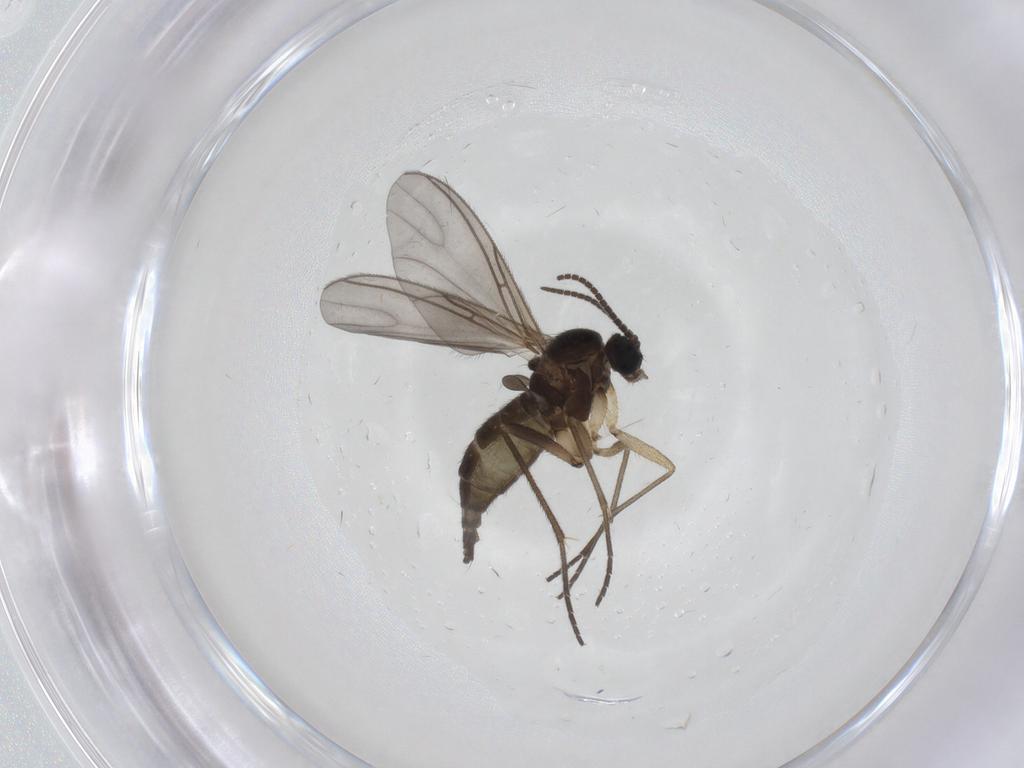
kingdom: Animalia
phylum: Arthropoda
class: Insecta
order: Diptera
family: Sciaridae
